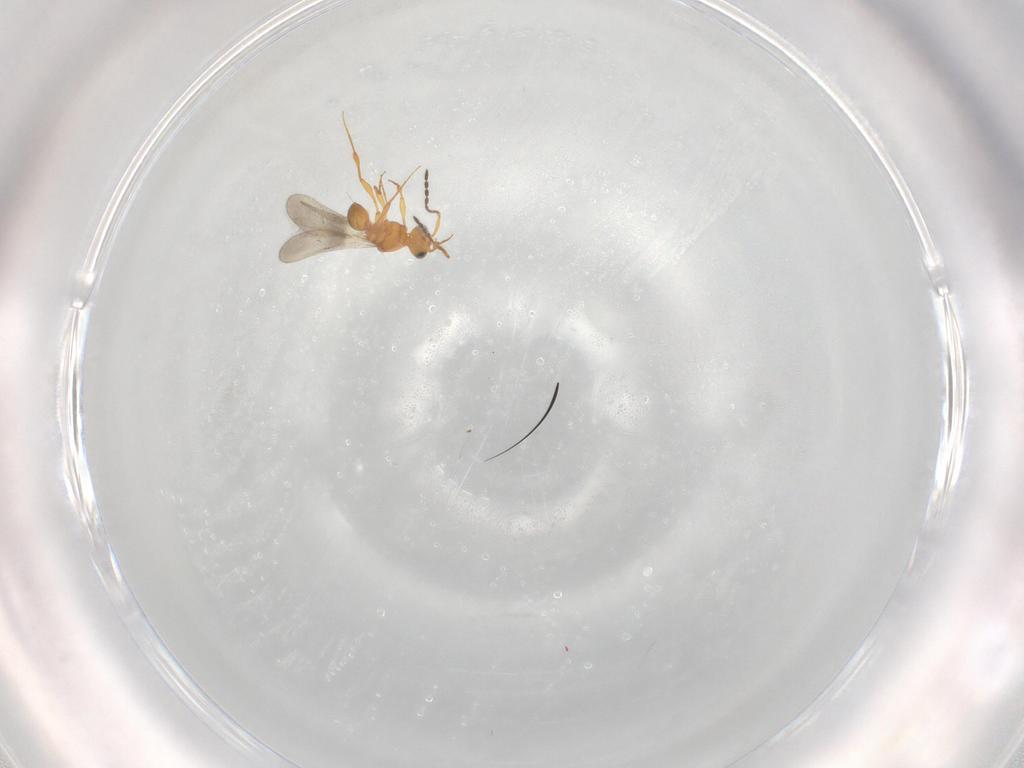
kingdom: Animalia
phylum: Arthropoda
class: Insecta
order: Hymenoptera
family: Platygastridae
